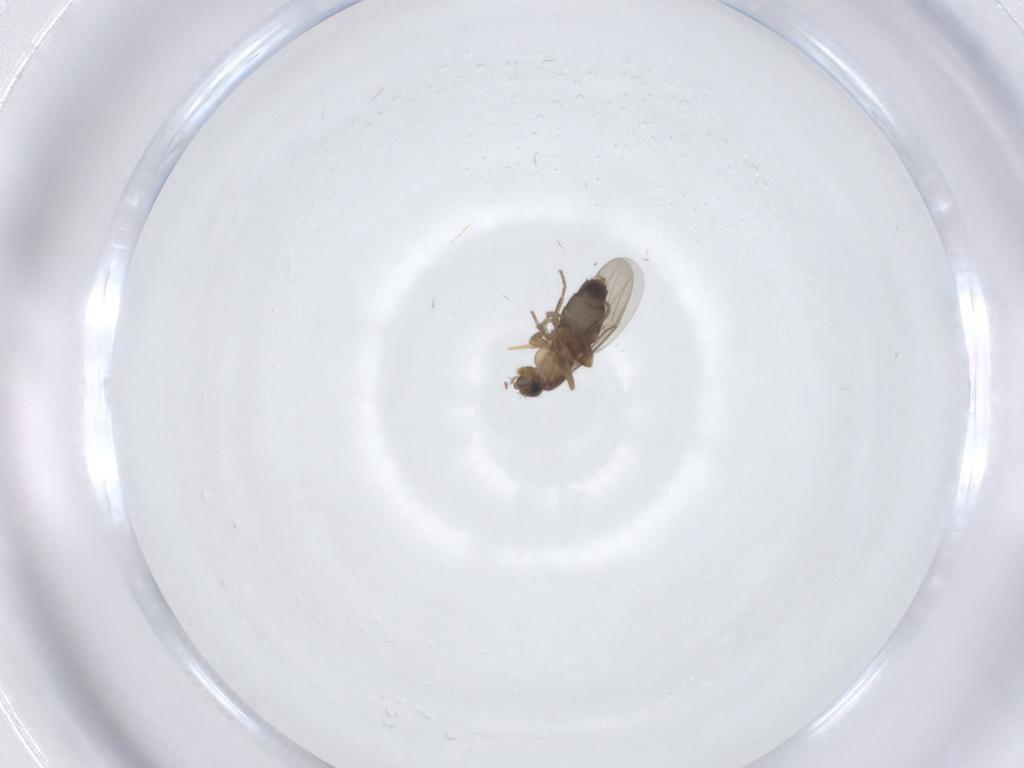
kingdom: Animalia
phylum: Arthropoda
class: Insecta
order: Diptera
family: Phoridae
